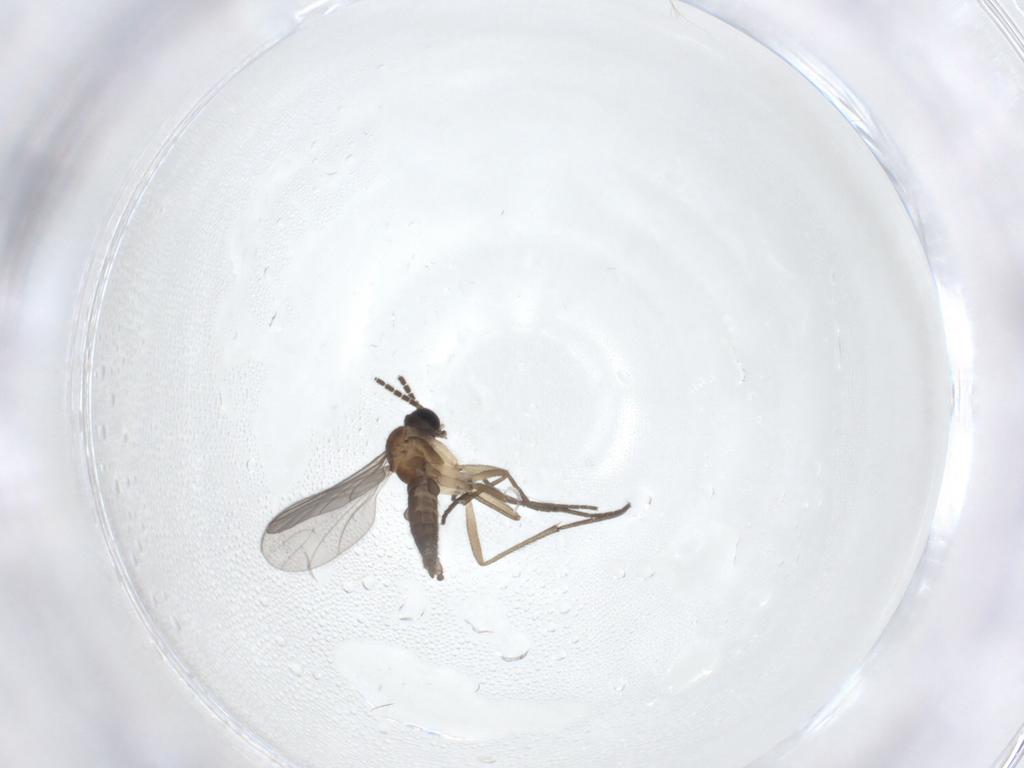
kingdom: Animalia
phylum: Arthropoda
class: Insecta
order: Diptera
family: Sciaridae
